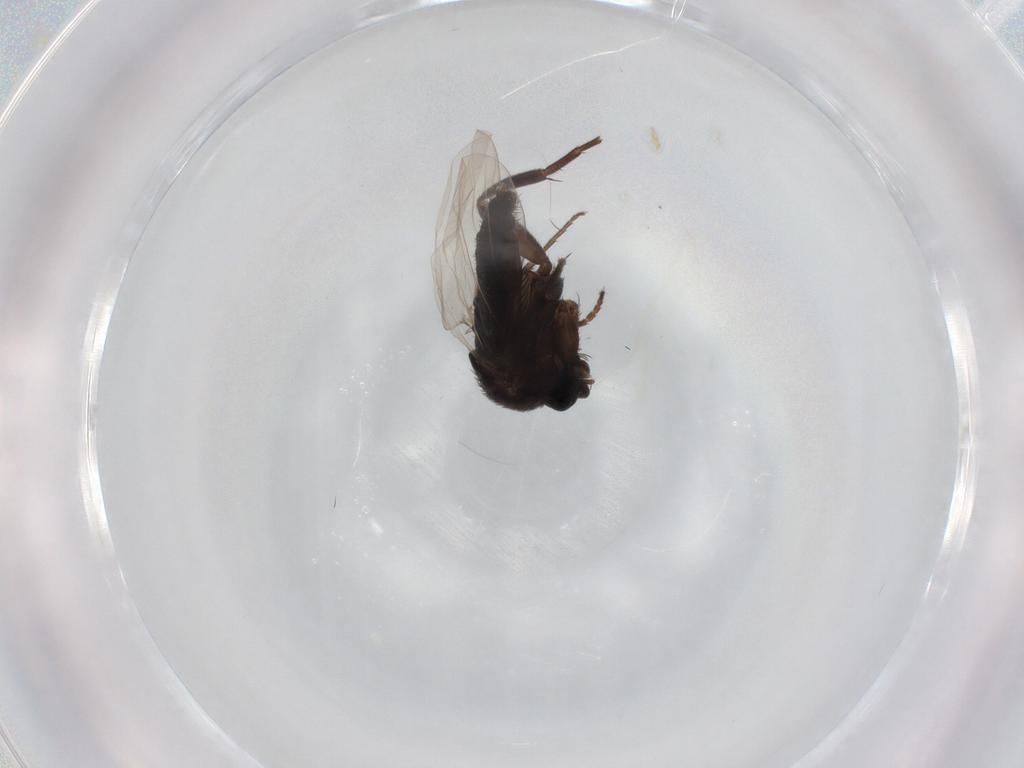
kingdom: Animalia
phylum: Arthropoda
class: Insecta
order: Diptera
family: Phoridae
